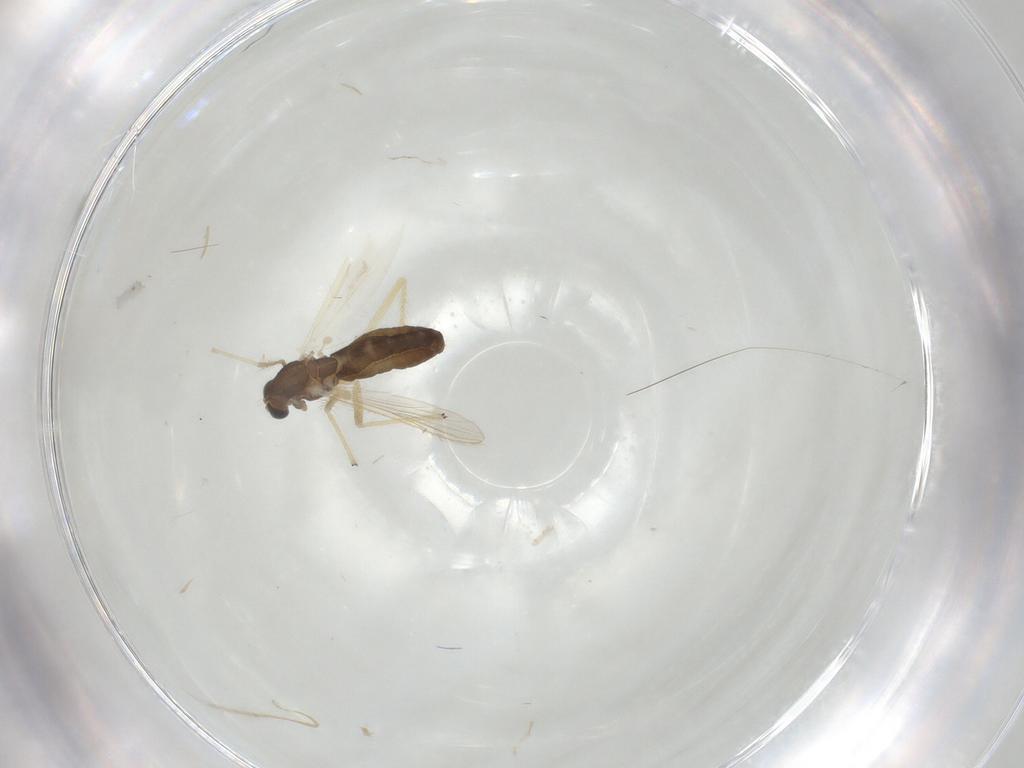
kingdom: Animalia
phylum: Arthropoda
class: Insecta
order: Diptera
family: Chironomidae
